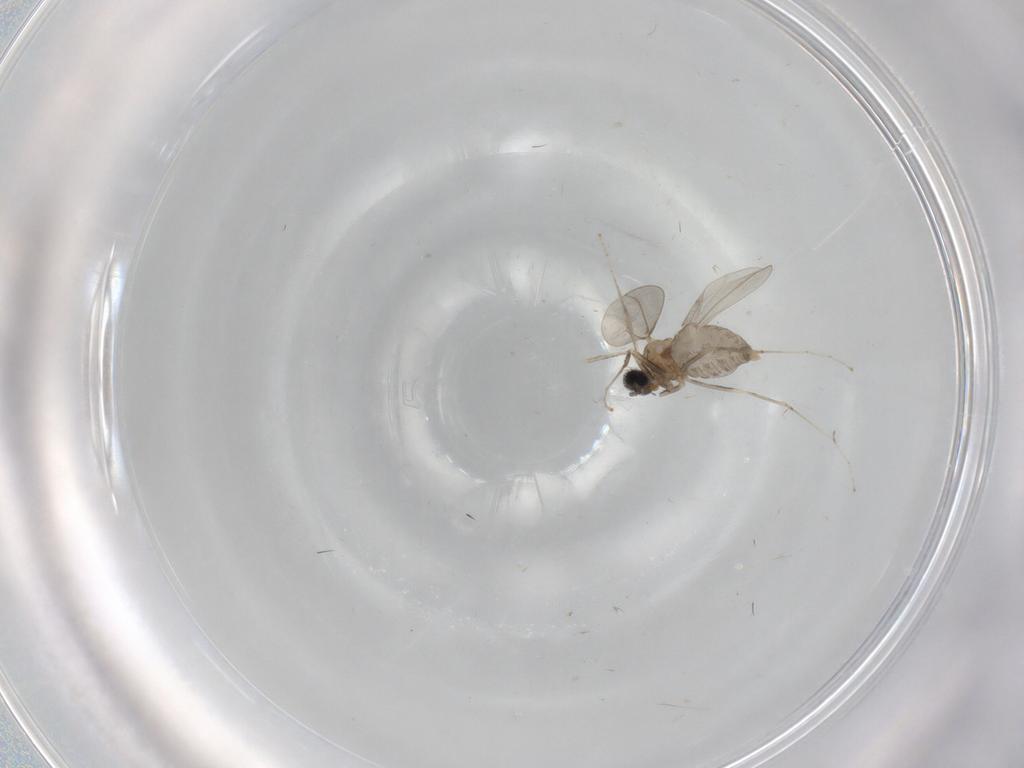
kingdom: Animalia
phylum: Arthropoda
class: Insecta
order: Diptera
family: Cecidomyiidae
